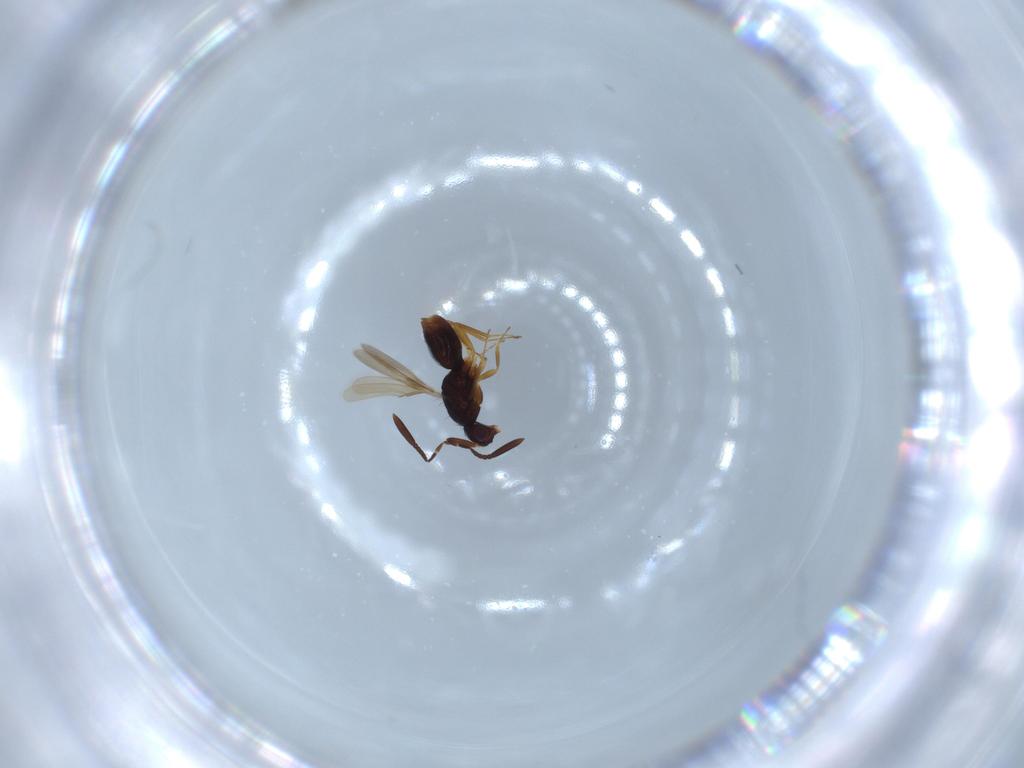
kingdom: Animalia
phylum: Arthropoda
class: Insecta
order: Hymenoptera
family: Mymaridae
